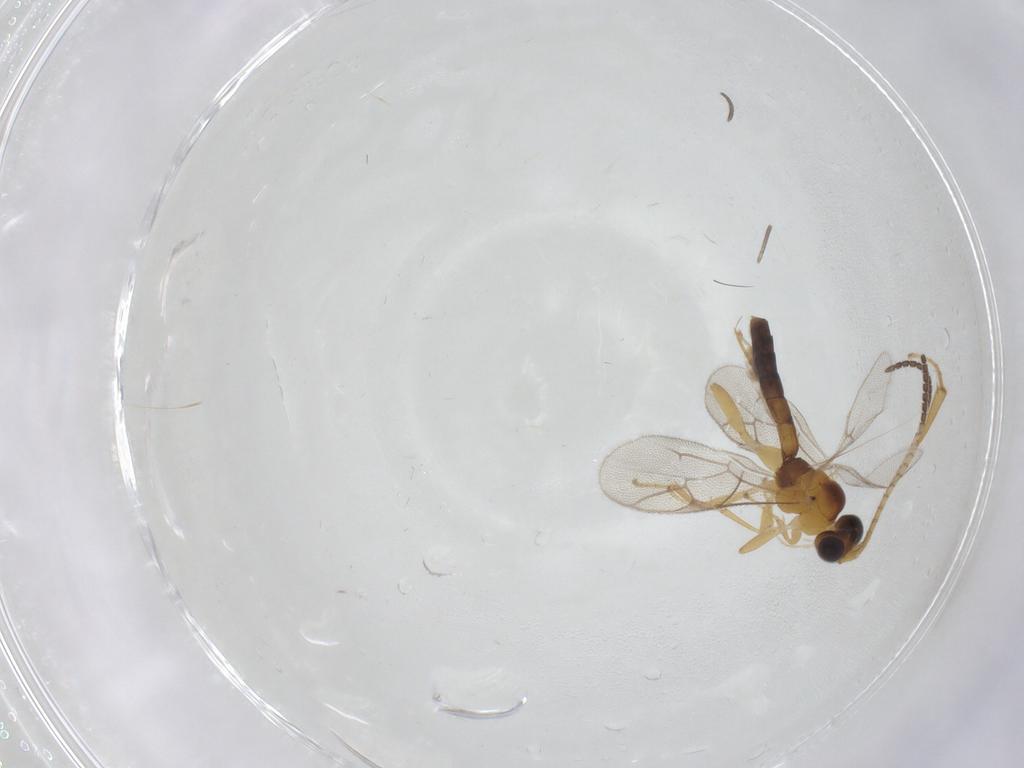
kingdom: Animalia
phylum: Arthropoda
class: Insecta
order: Hymenoptera
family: Ichneumonidae
